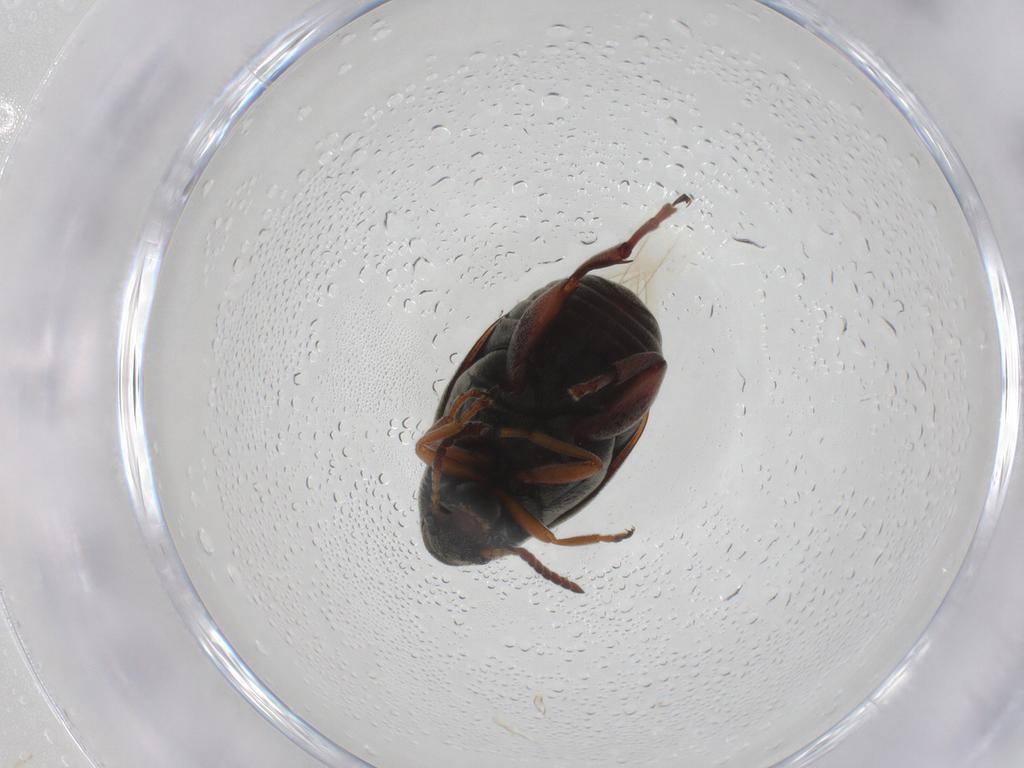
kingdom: Animalia
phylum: Arthropoda
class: Insecta
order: Coleoptera
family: Chrysomelidae
